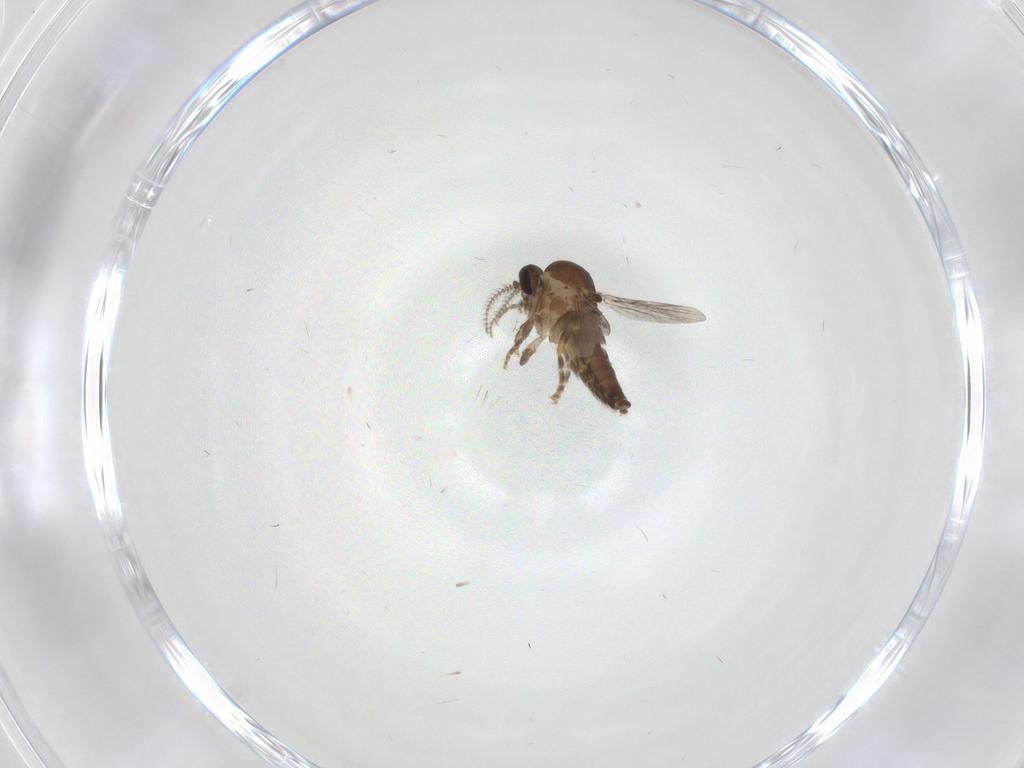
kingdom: Animalia
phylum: Arthropoda
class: Insecta
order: Diptera
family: Ceratopogonidae
